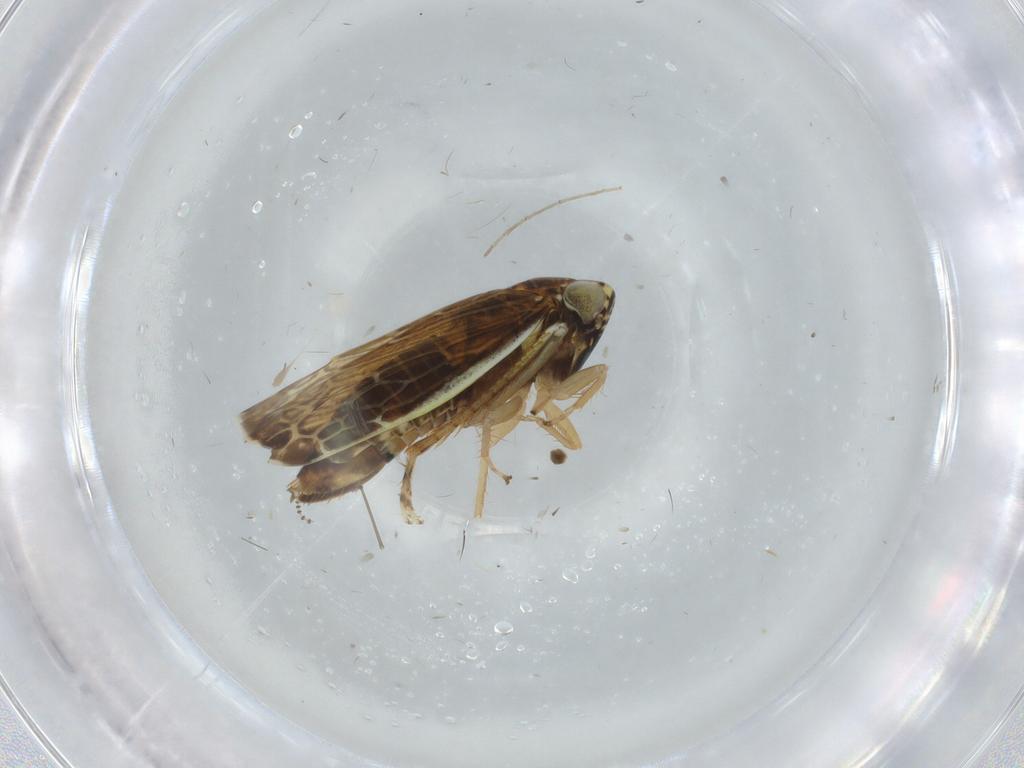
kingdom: Animalia
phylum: Arthropoda
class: Insecta
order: Hemiptera
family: Cicadellidae
